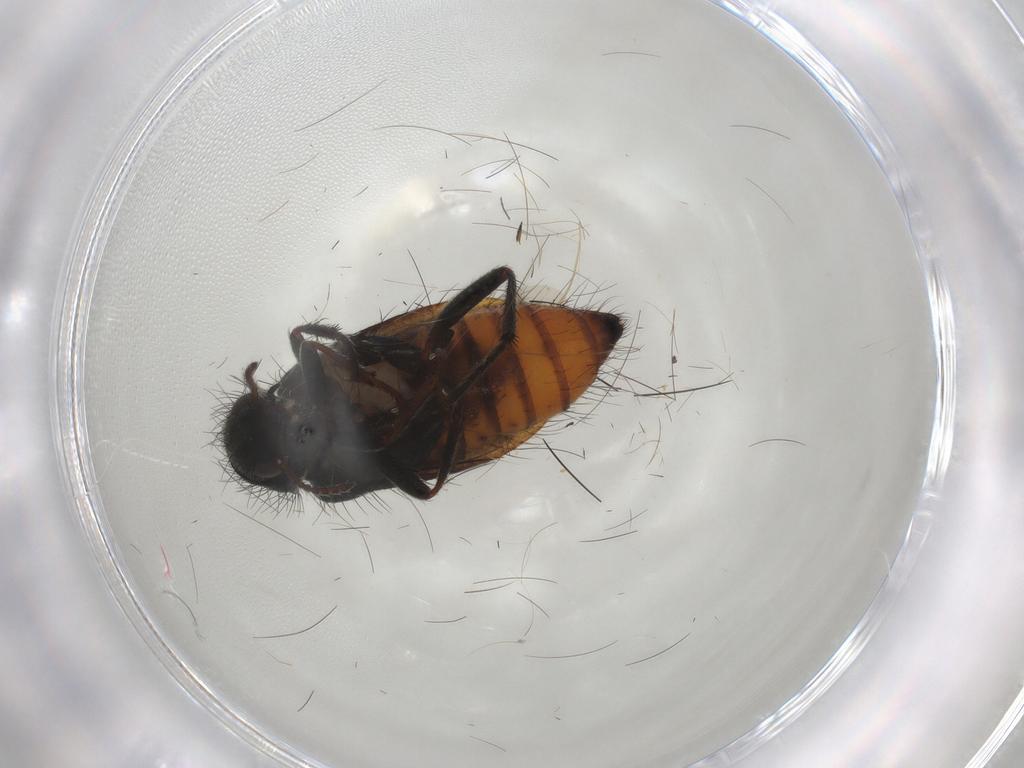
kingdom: Animalia
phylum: Arthropoda
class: Insecta
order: Coleoptera
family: Melyridae
